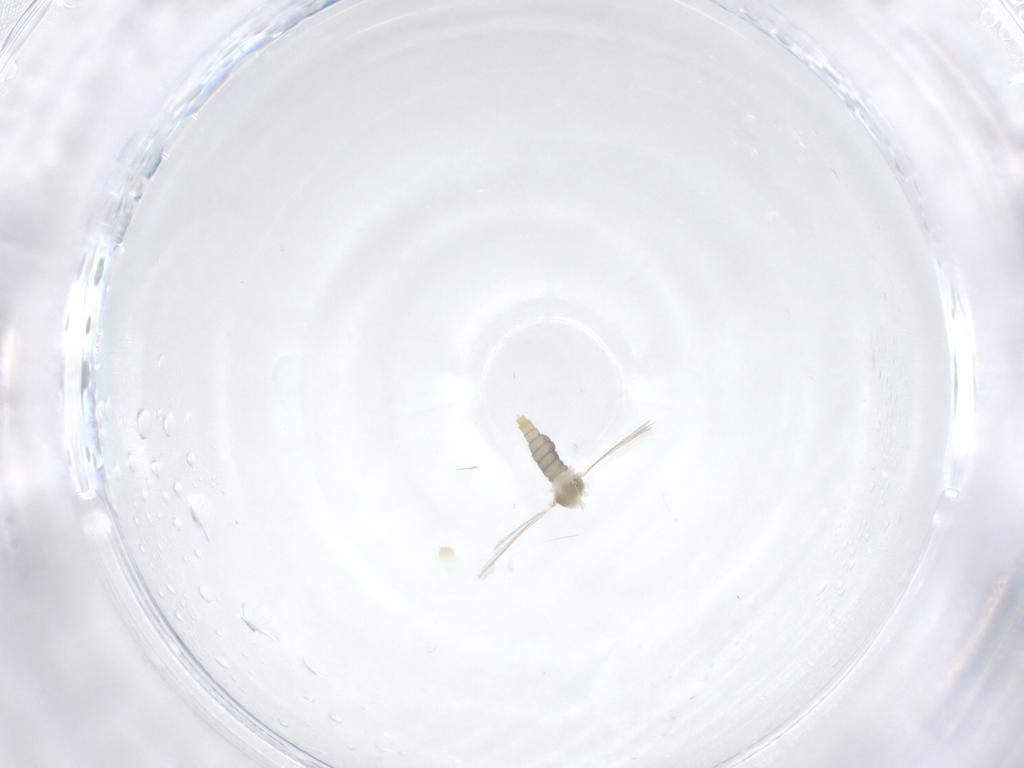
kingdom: Animalia
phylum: Arthropoda
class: Insecta
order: Diptera
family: Cecidomyiidae
